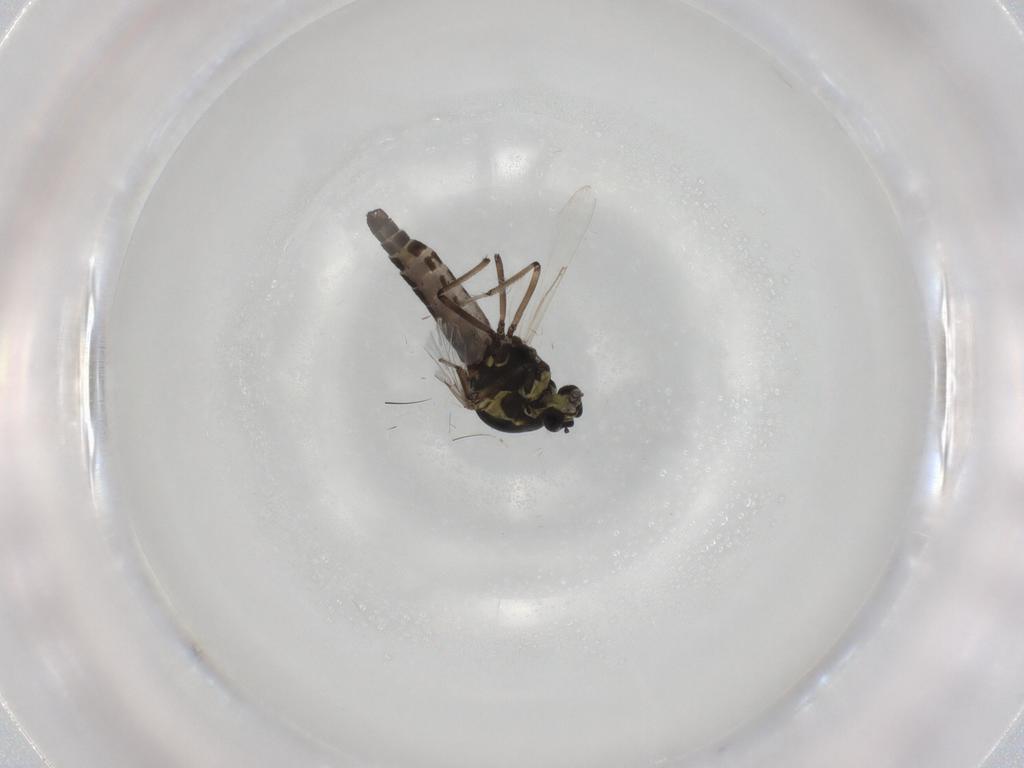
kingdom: Animalia
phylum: Arthropoda
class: Insecta
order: Diptera
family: Ceratopogonidae
